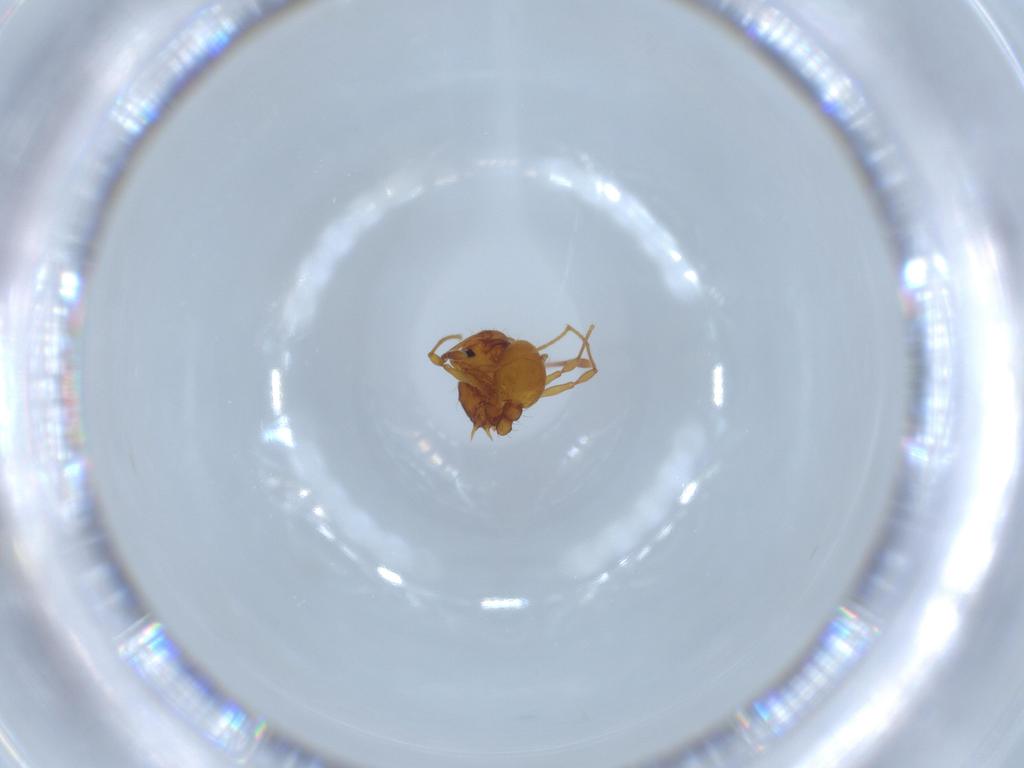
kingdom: Animalia
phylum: Arthropoda
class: Insecta
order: Hymenoptera
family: Formicidae
